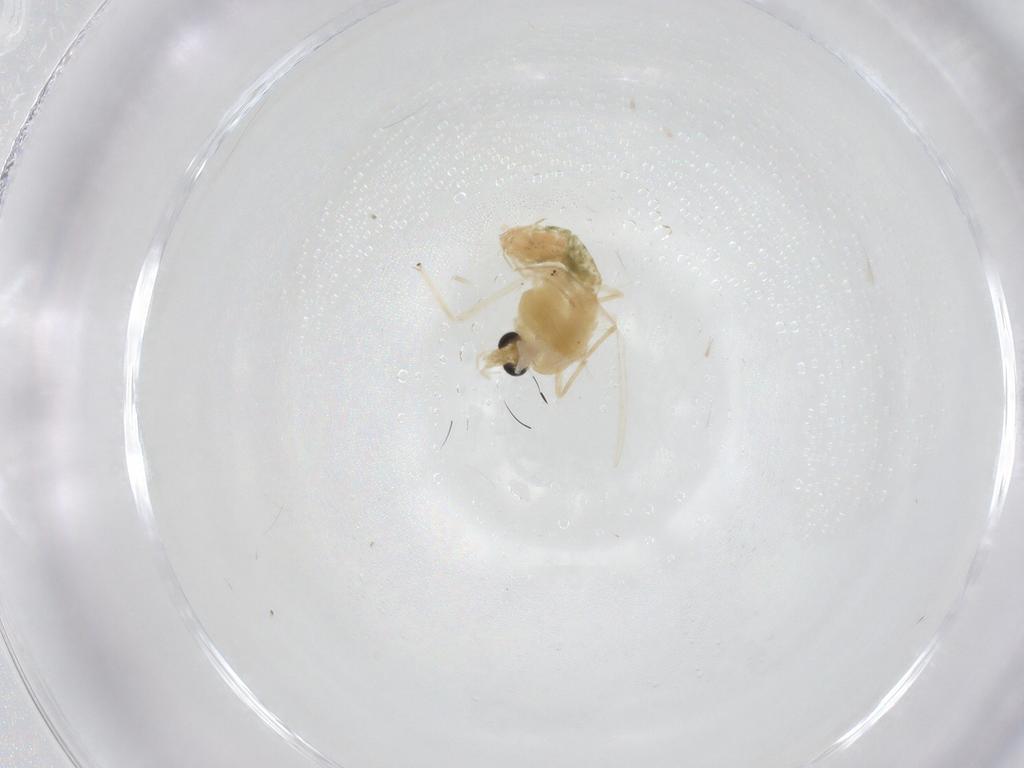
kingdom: Animalia
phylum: Arthropoda
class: Insecta
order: Diptera
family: Chironomidae
